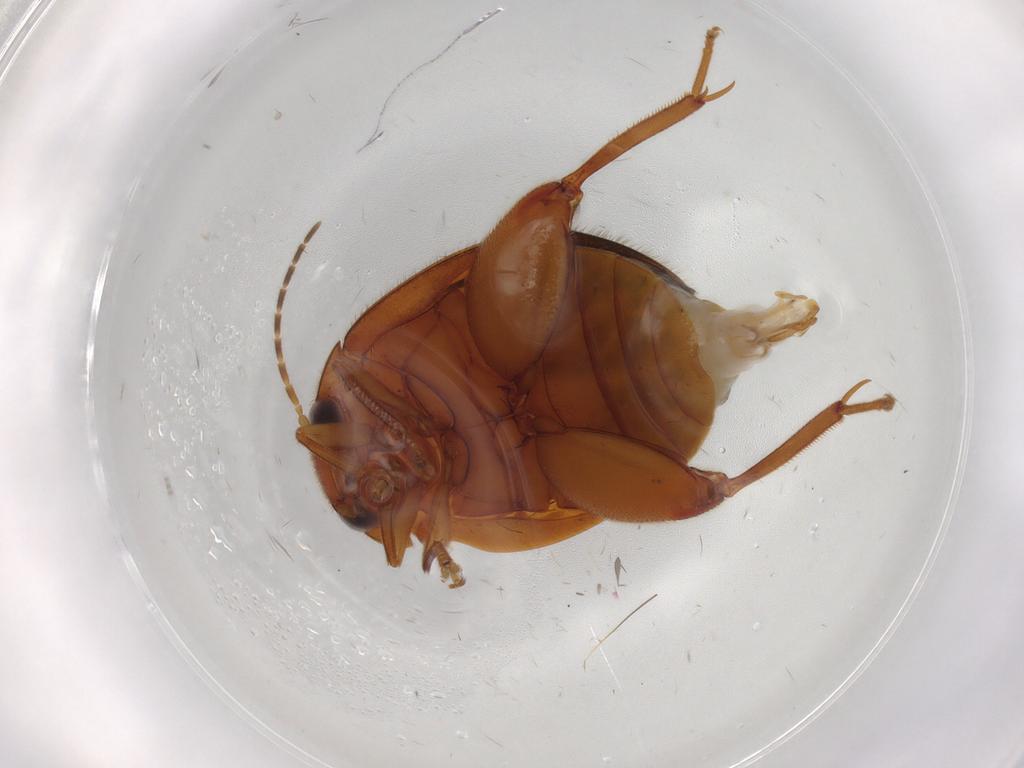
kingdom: Animalia
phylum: Arthropoda
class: Insecta
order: Coleoptera
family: Scirtidae
